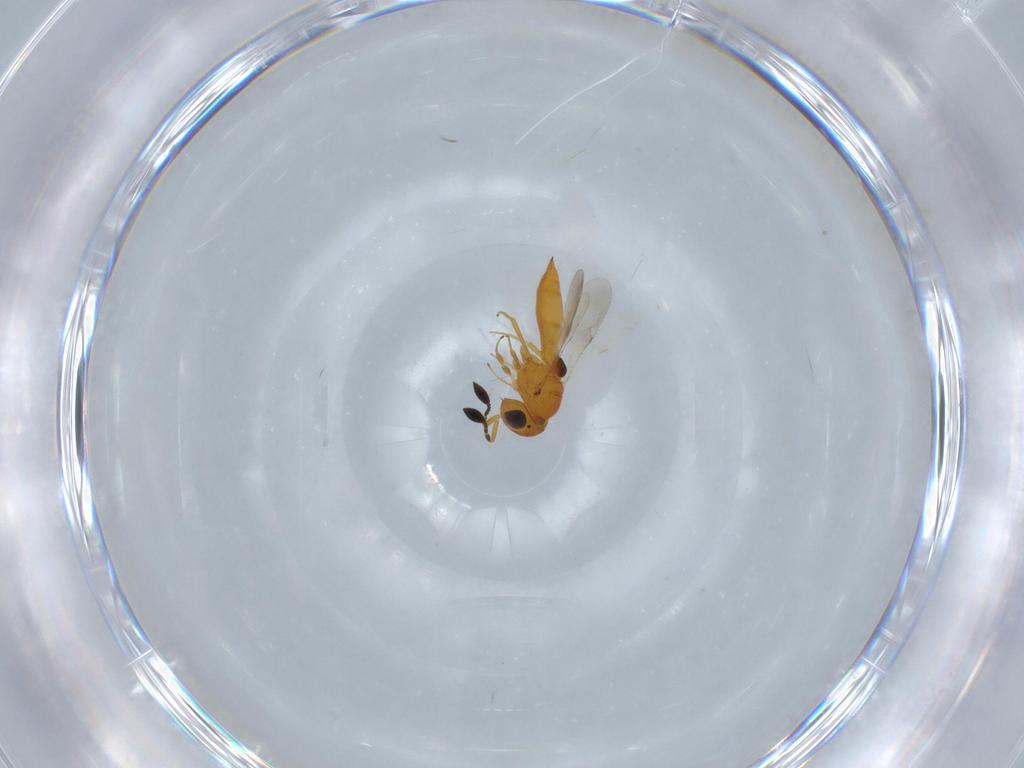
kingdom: Animalia
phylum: Arthropoda
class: Insecta
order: Hymenoptera
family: Scelionidae
